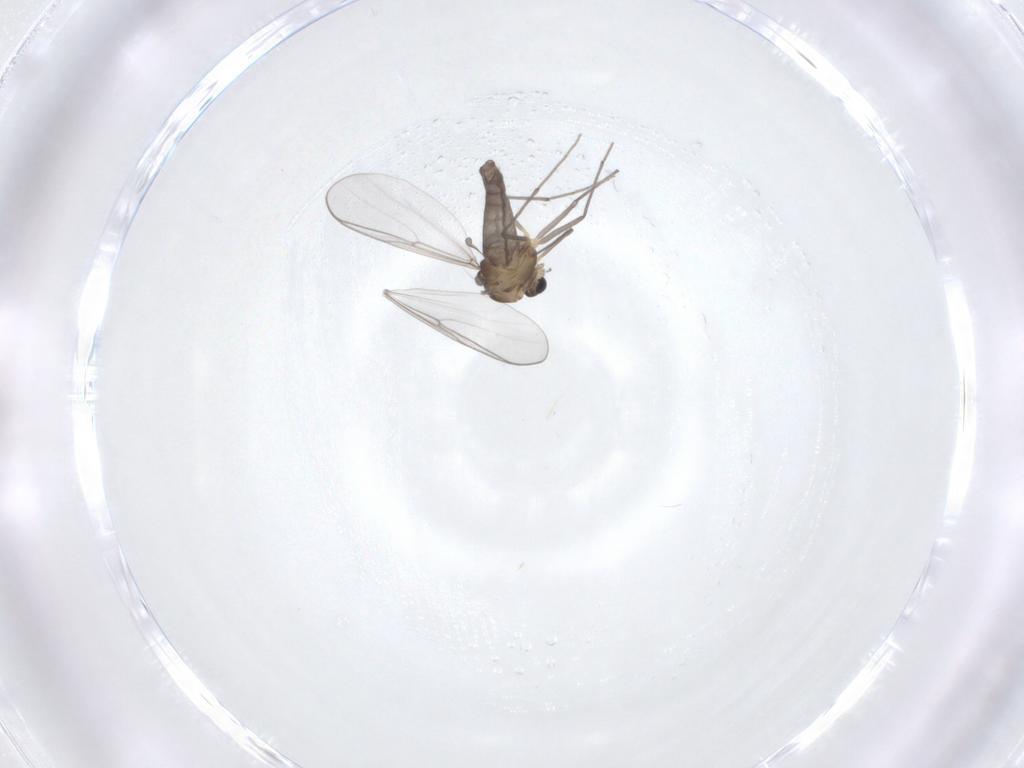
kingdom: Animalia
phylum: Arthropoda
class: Insecta
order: Diptera
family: Chironomidae
